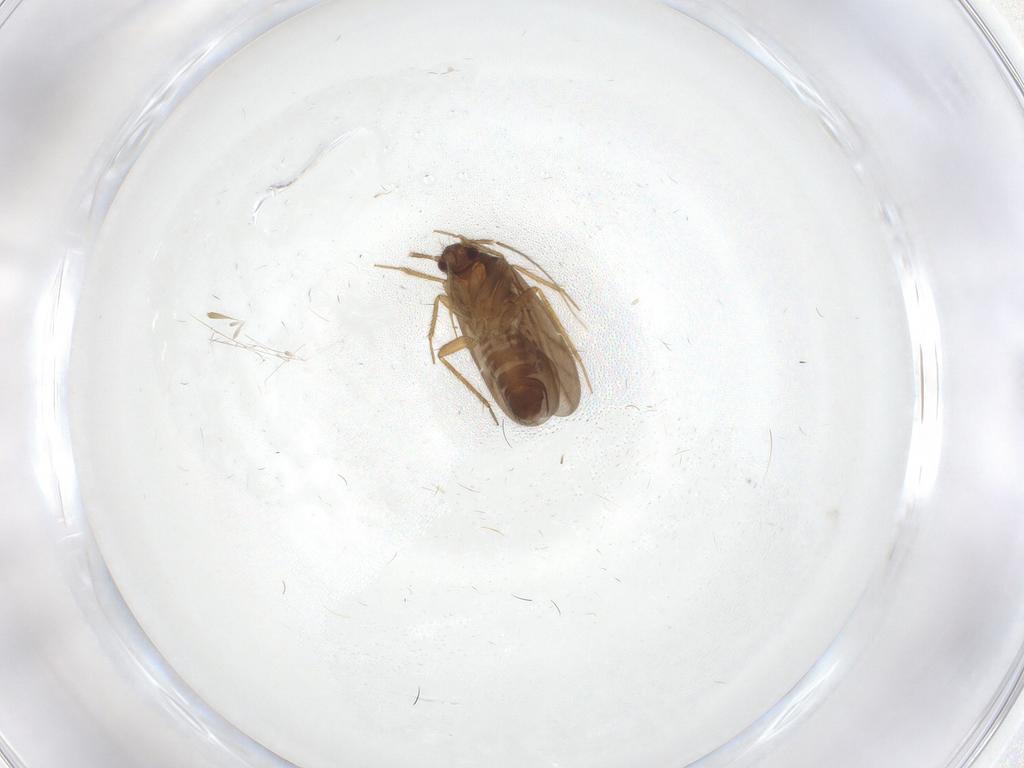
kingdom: Animalia
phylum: Arthropoda
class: Insecta
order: Hemiptera
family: Ceratocombidae
